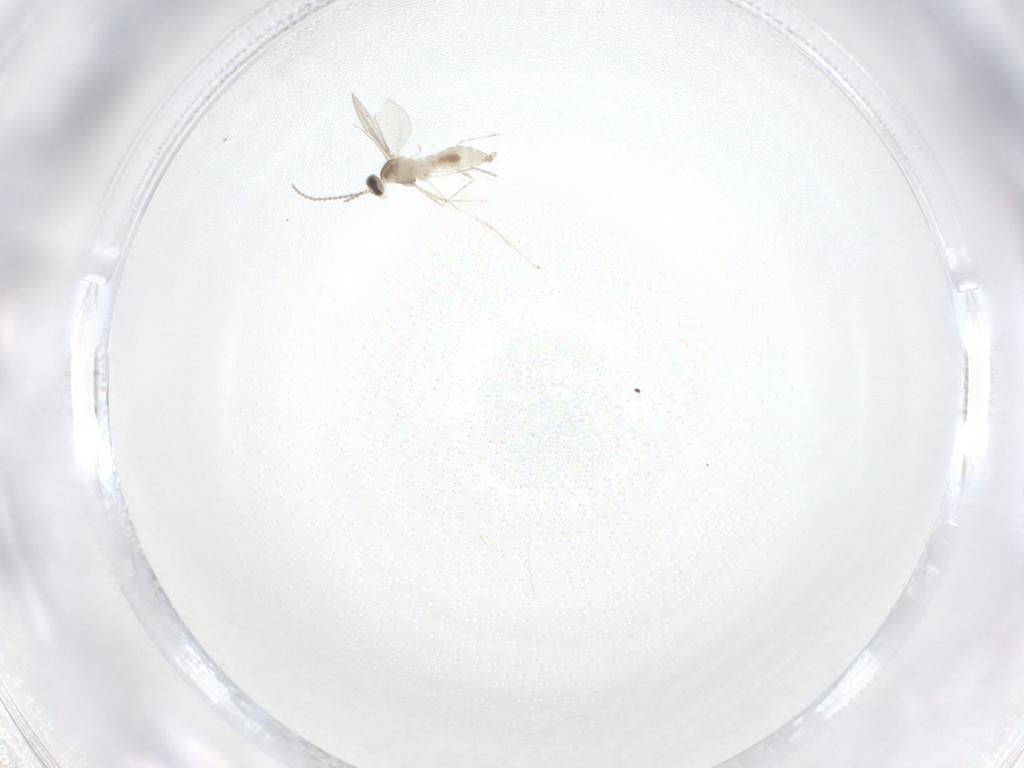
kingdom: Animalia
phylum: Arthropoda
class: Insecta
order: Diptera
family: Cecidomyiidae
